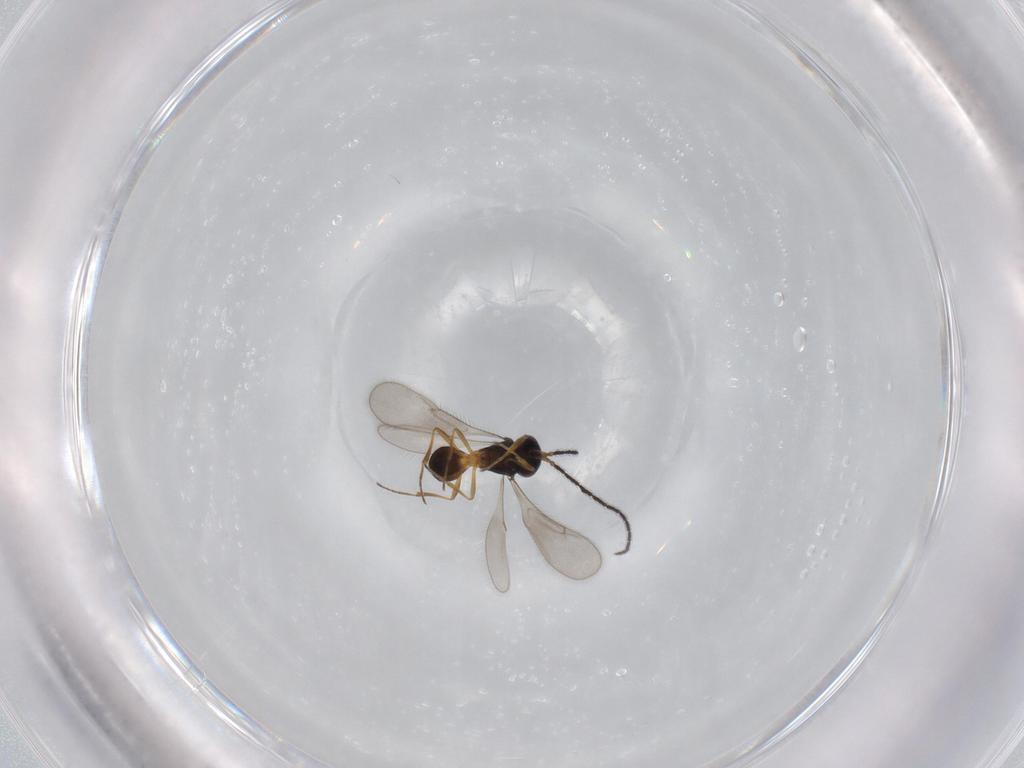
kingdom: Animalia
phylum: Arthropoda
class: Insecta
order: Hymenoptera
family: Scelionidae
